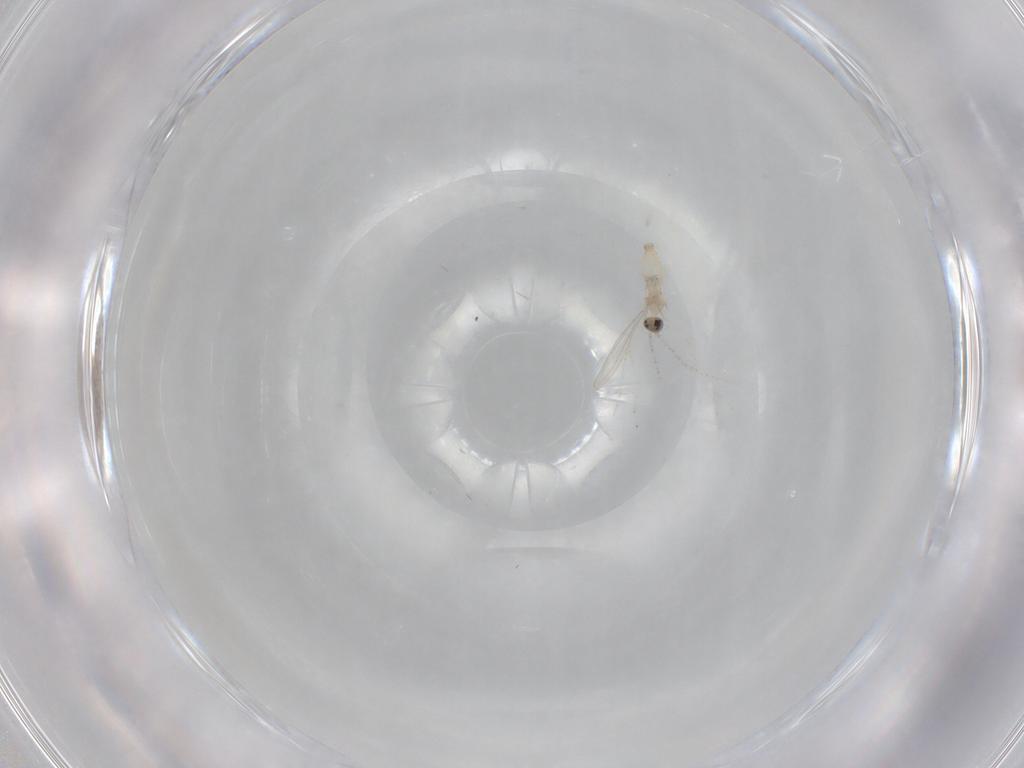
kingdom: Animalia
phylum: Arthropoda
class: Insecta
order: Diptera
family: Cecidomyiidae
